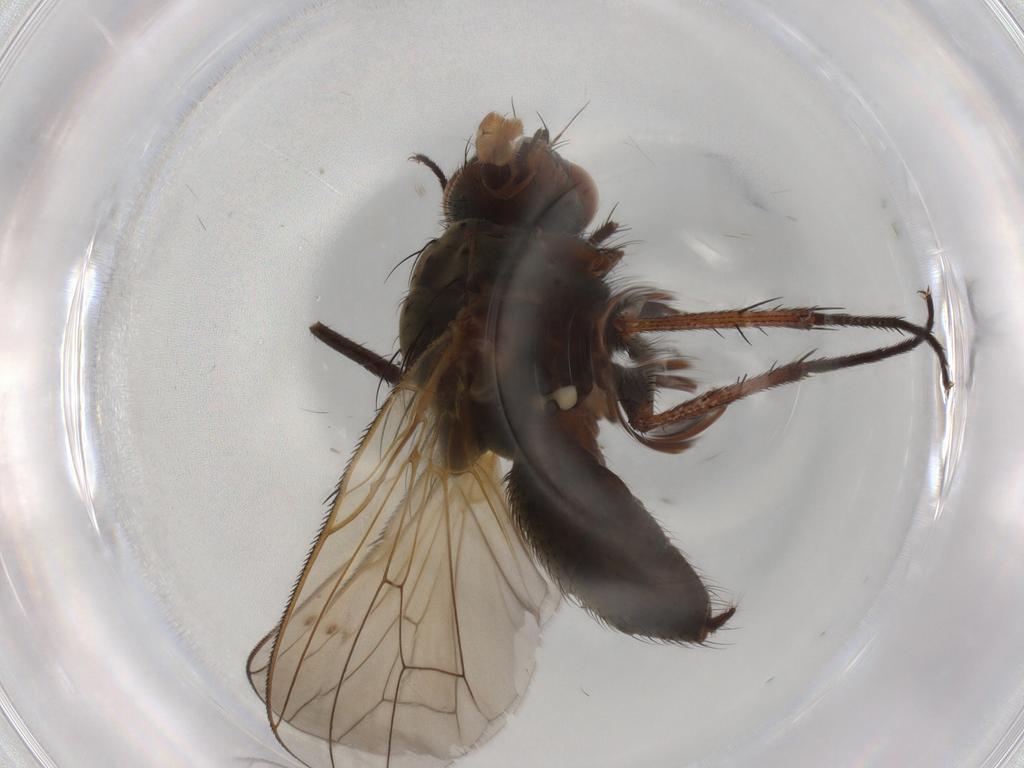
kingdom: Animalia
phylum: Arthropoda
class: Insecta
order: Diptera
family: Anthomyiidae
